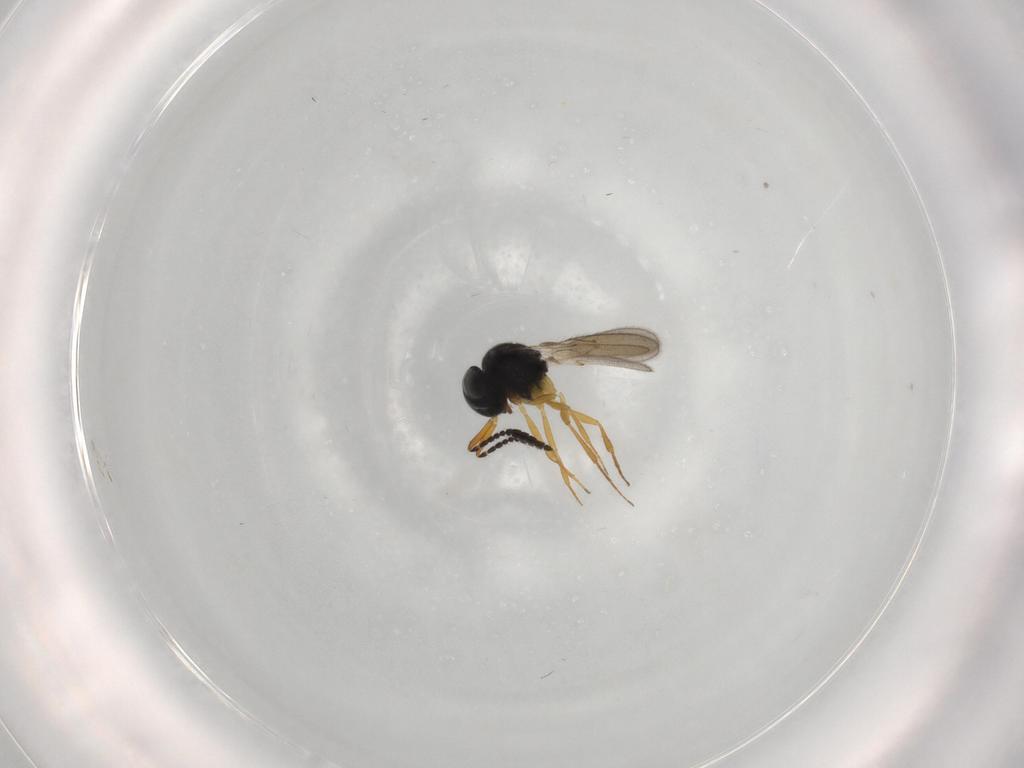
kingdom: Animalia
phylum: Arthropoda
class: Insecta
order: Hymenoptera
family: Scelionidae
